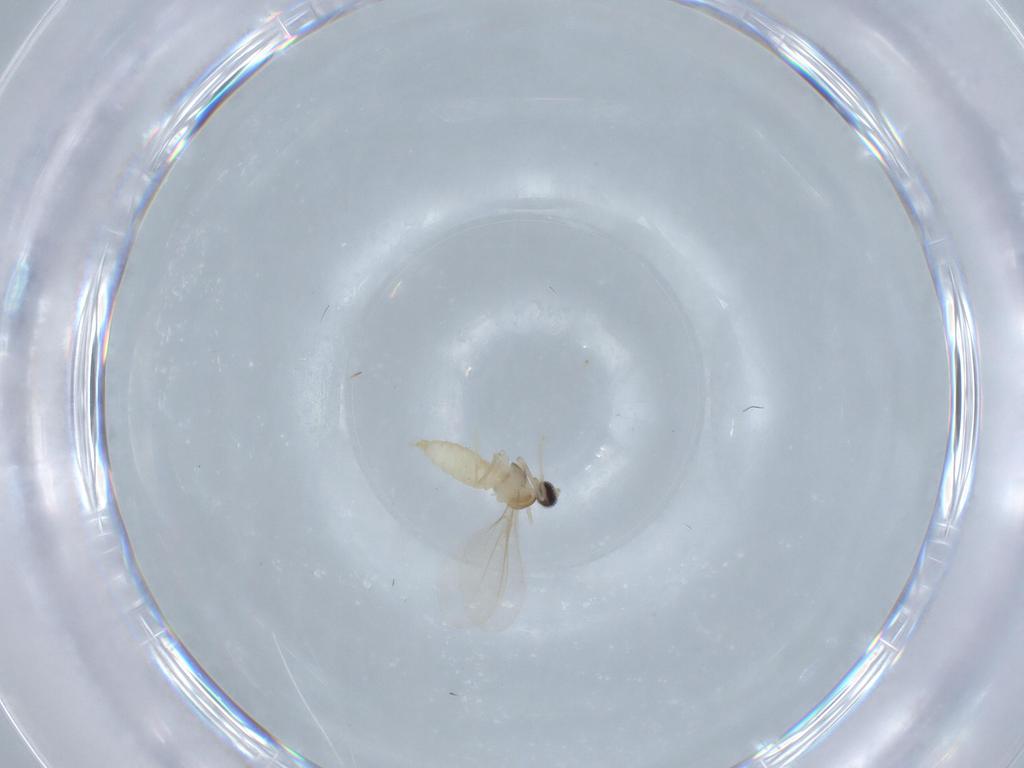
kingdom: Animalia
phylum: Arthropoda
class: Insecta
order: Diptera
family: Cecidomyiidae
